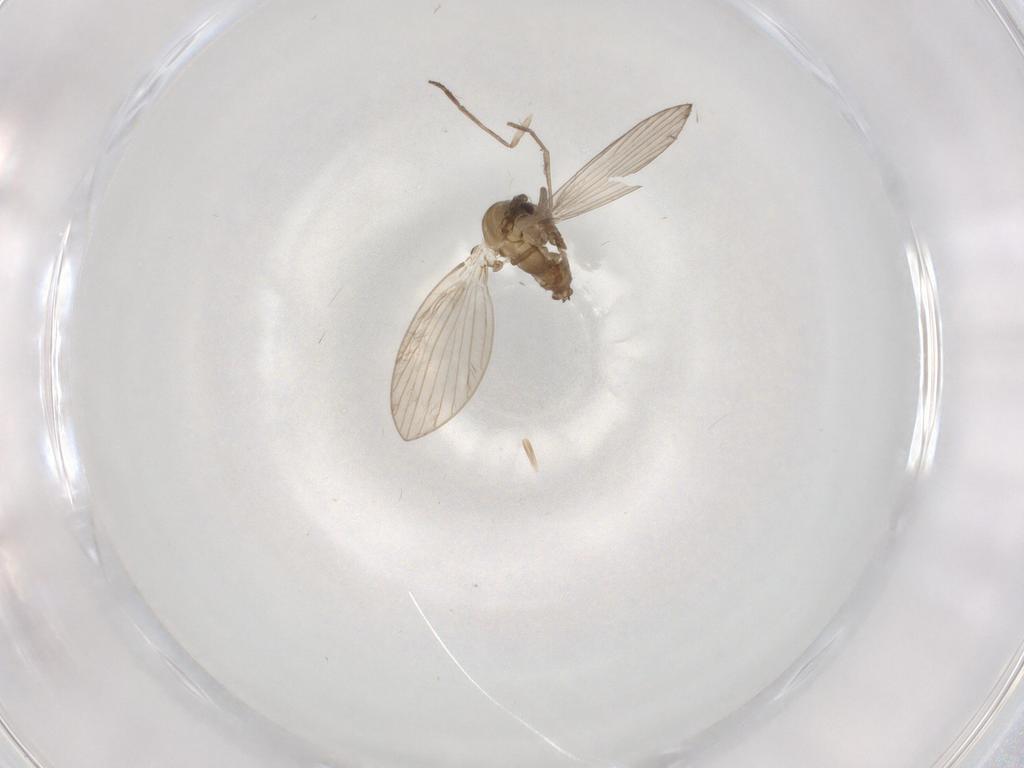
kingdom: Animalia
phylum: Arthropoda
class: Insecta
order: Diptera
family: Psychodidae
